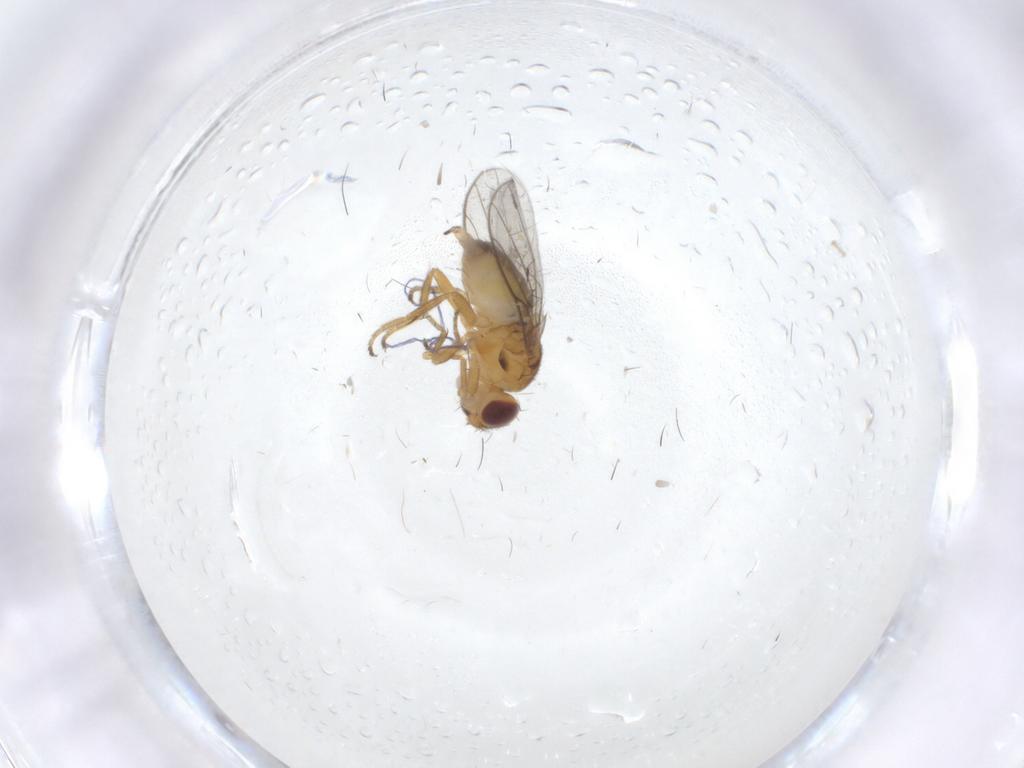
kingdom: Animalia
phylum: Arthropoda
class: Insecta
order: Diptera
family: Chloropidae
